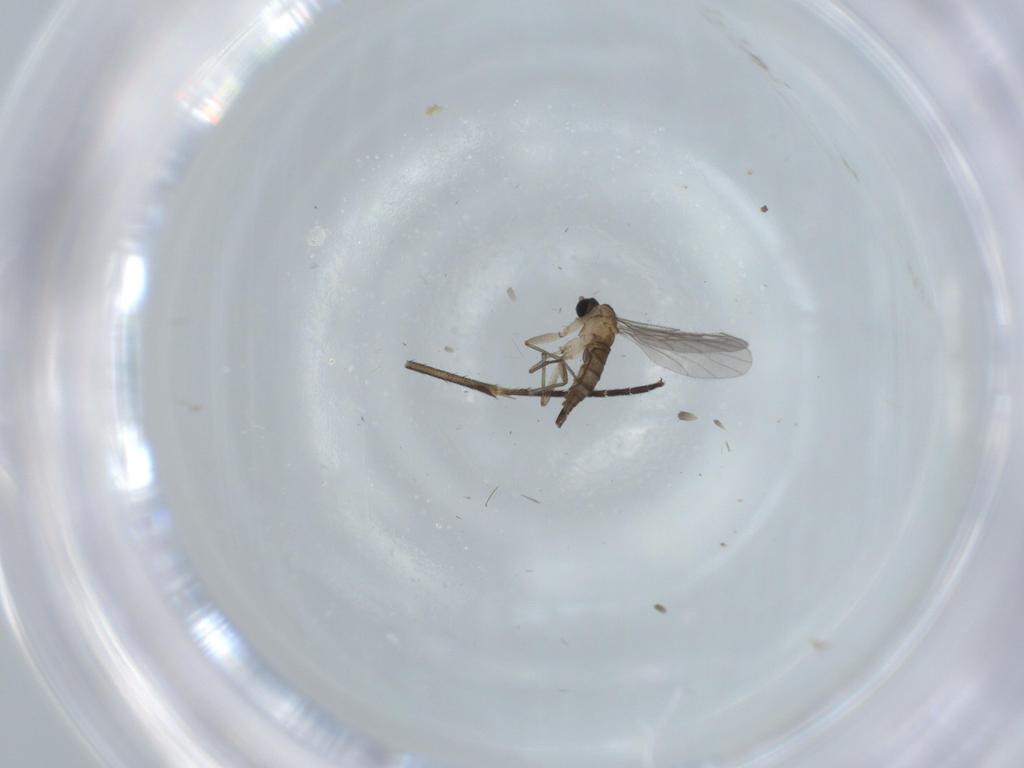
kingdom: Animalia
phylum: Arthropoda
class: Insecta
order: Diptera
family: Sciaridae
